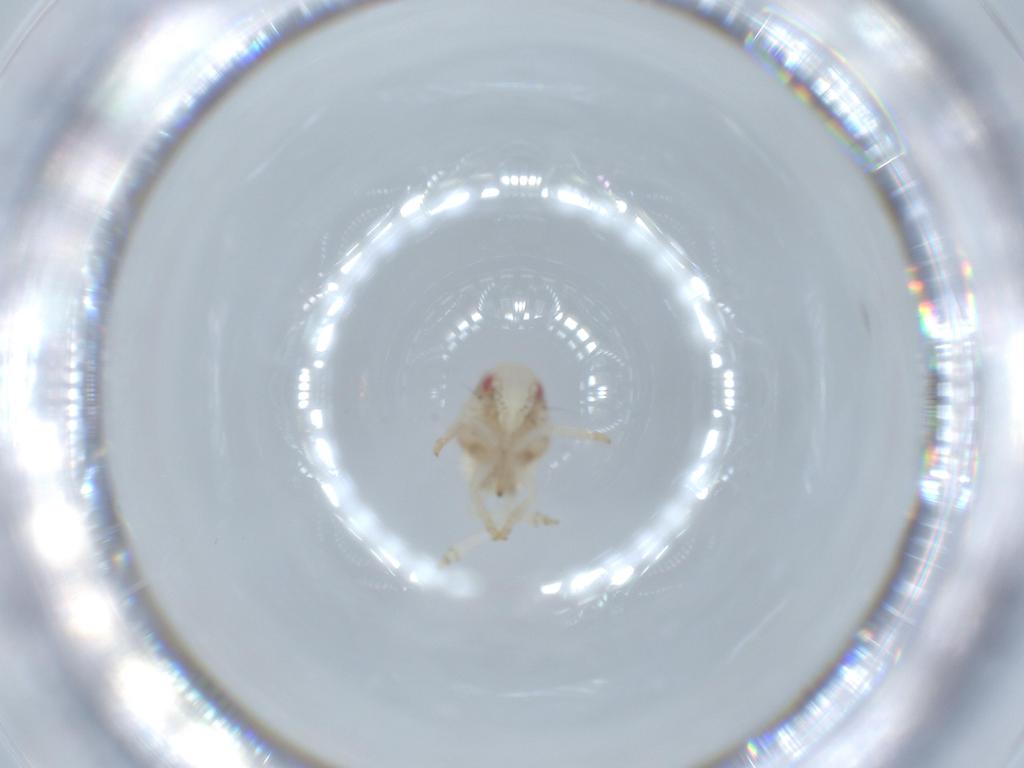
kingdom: Animalia
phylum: Arthropoda
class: Insecta
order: Hemiptera
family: Acanaloniidae
